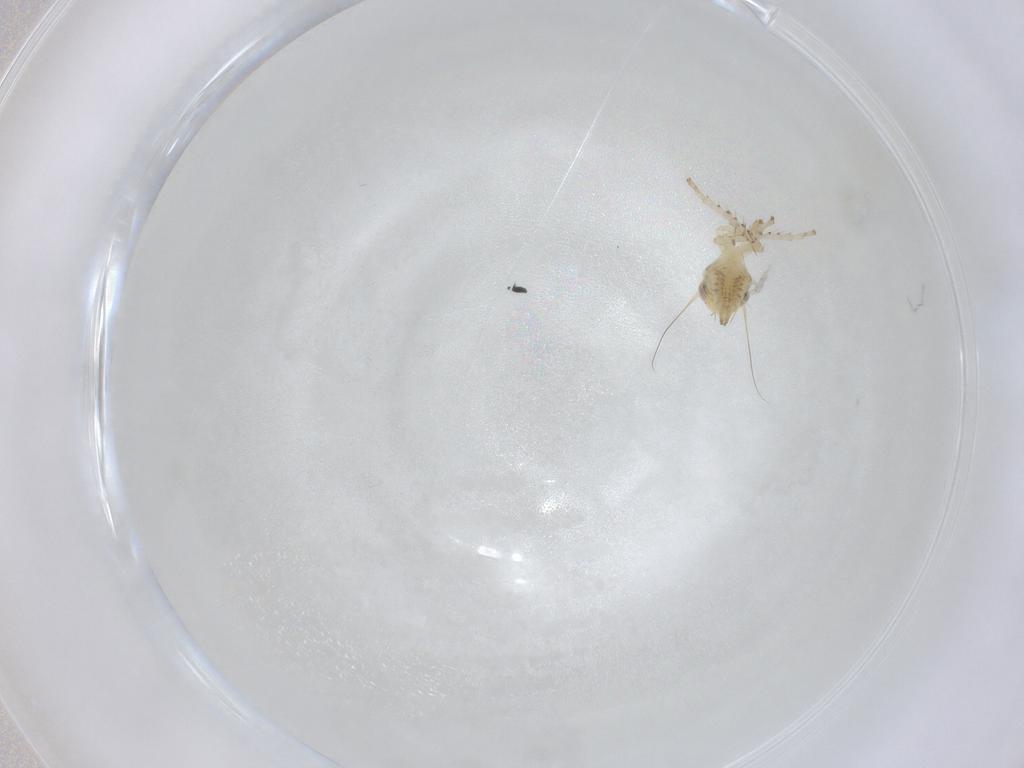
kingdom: Animalia
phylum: Arthropoda
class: Insecta
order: Hemiptera
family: Cicadellidae
